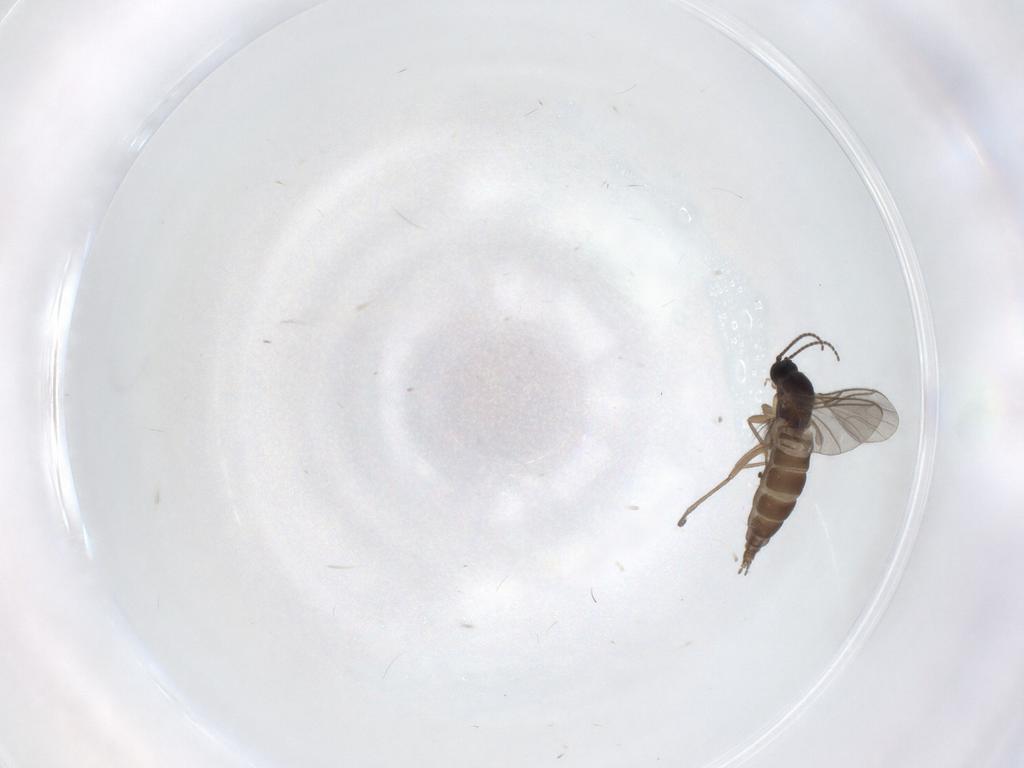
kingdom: Animalia
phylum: Arthropoda
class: Insecta
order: Diptera
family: Ceratopogonidae
